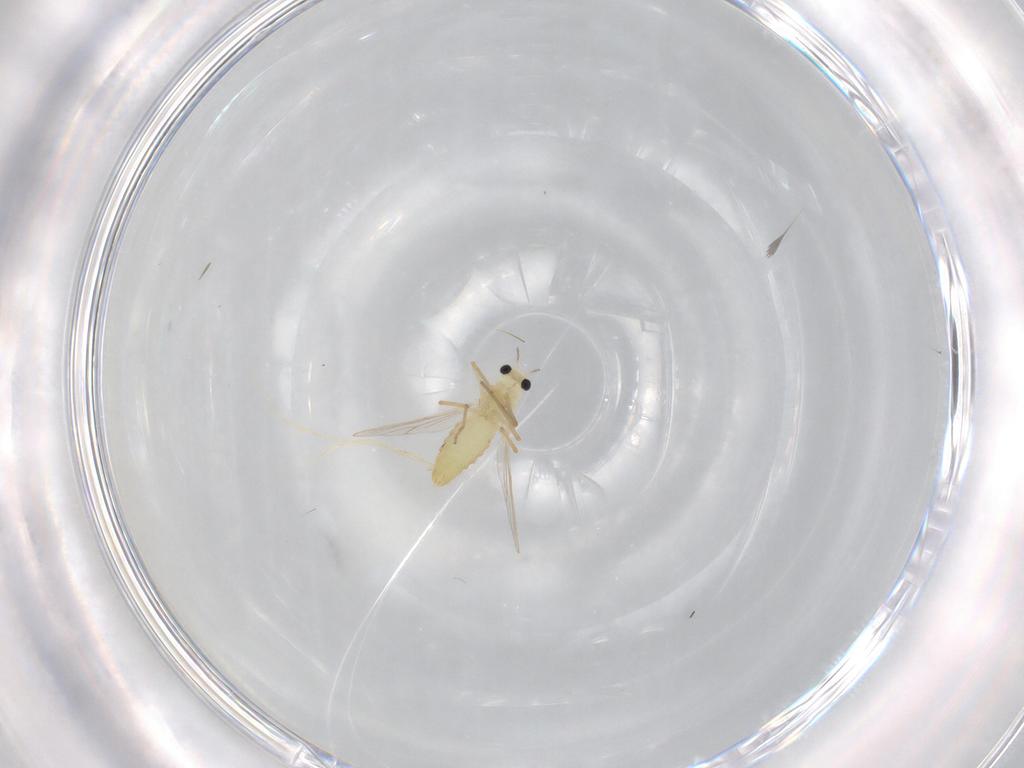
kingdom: Animalia
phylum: Arthropoda
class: Insecta
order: Diptera
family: Chironomidae
